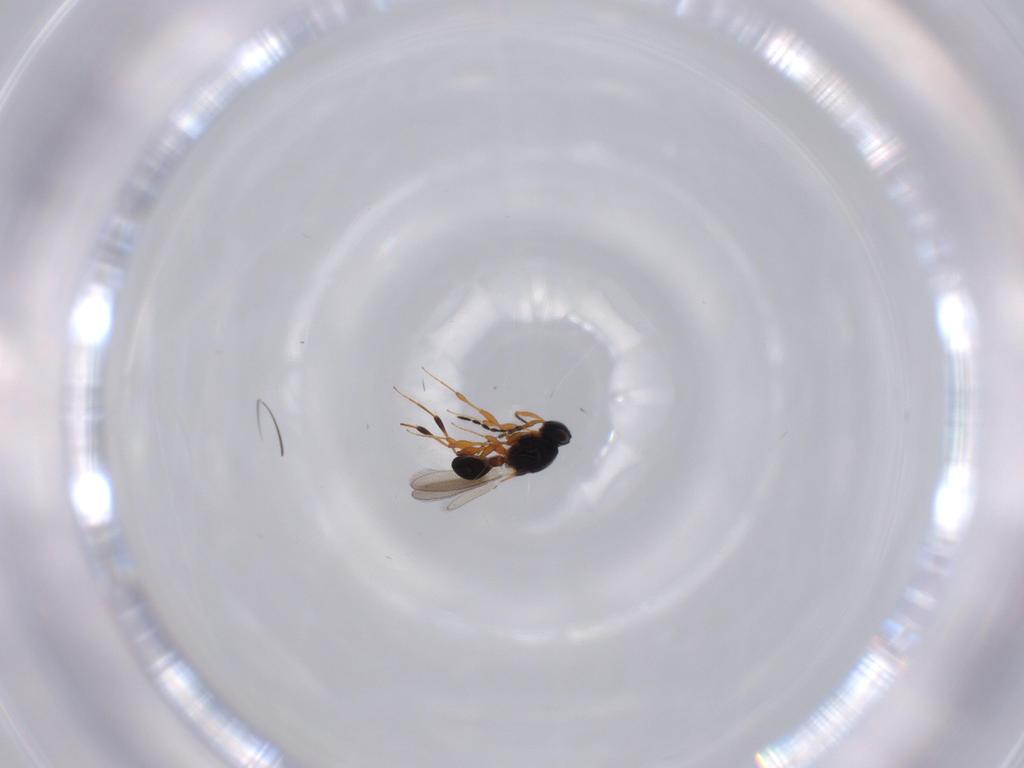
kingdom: Animalia
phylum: Arthropoda
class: Insecta
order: Hymenoptera
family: Platygastridae
